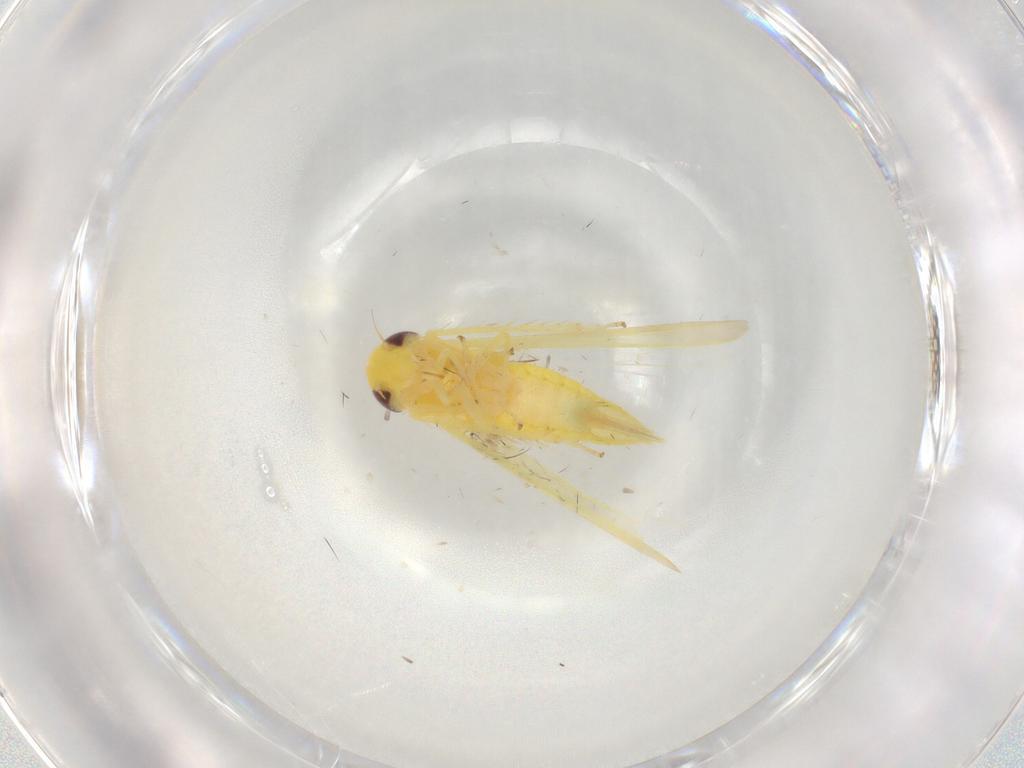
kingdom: Animalia
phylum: Arthropoda
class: Insecta
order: Hemiptera
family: Cicadellidae
